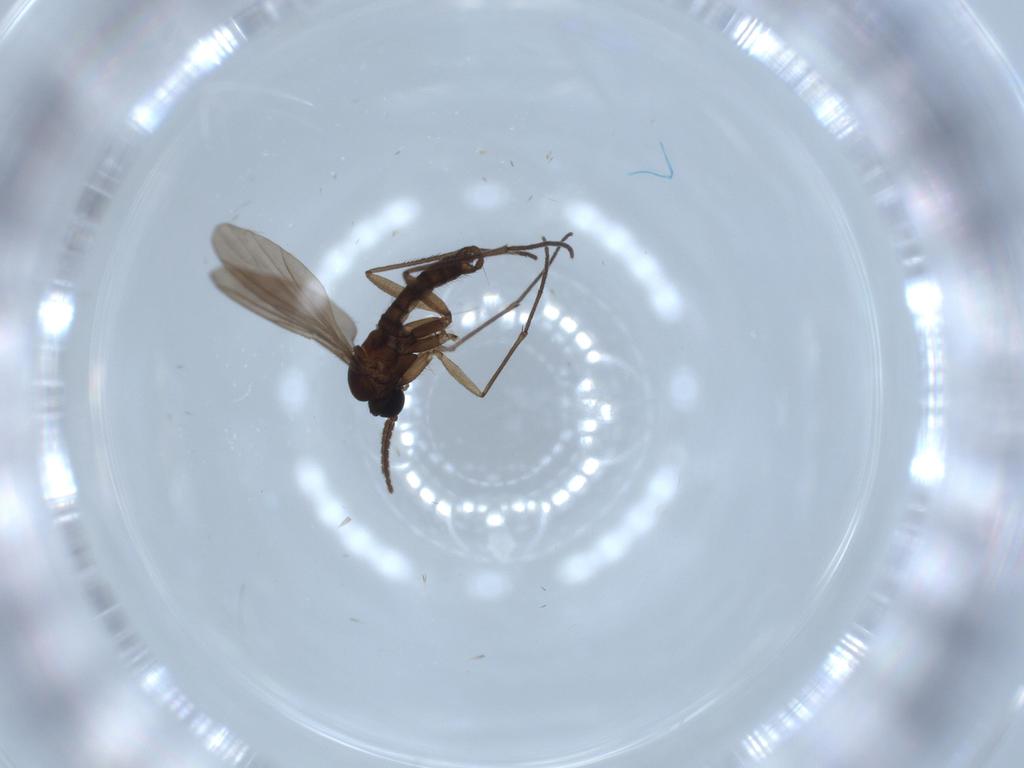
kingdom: Animalia
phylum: Arthropoda
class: Insecta
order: Diptera
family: Sciaridae
